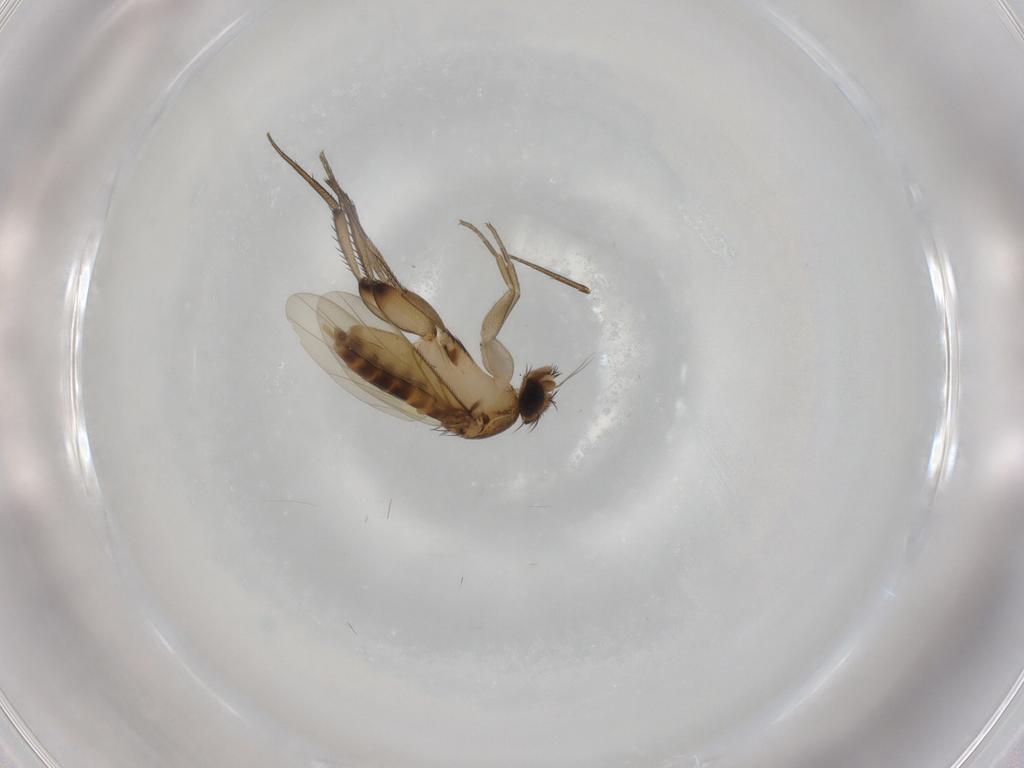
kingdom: Animalia
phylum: Arthropoda
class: Insecta
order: Diptera
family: Phoridae
